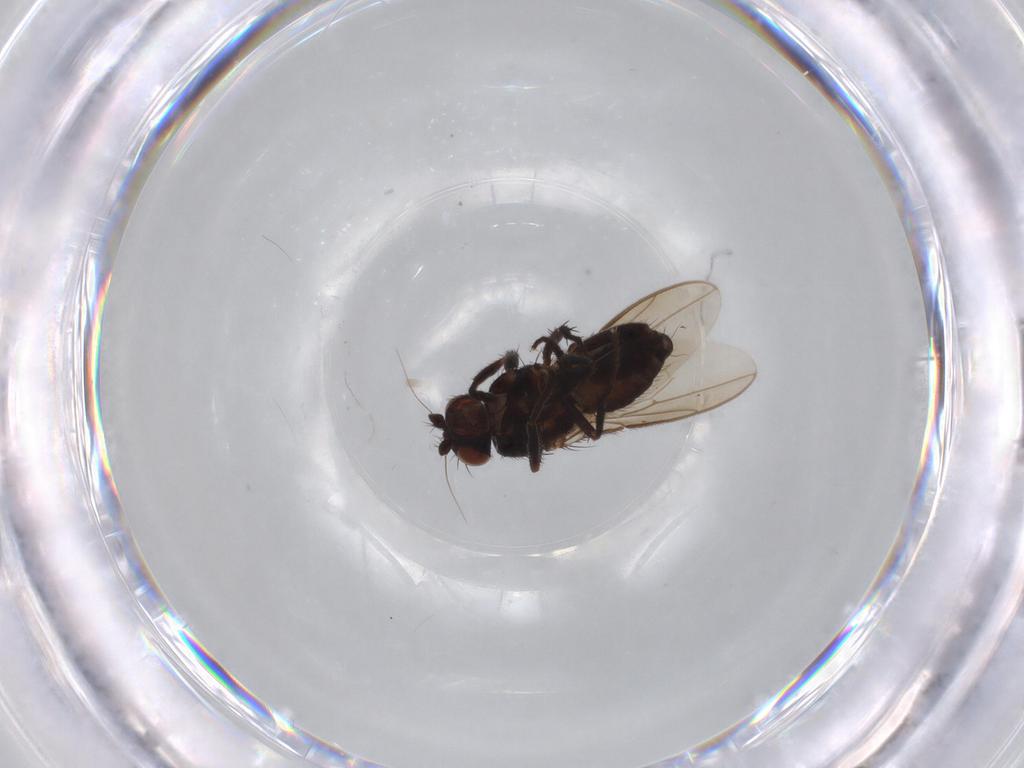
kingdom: Animalia
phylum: Arthropoda
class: Insecta
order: Diptera
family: Sphaeroceridae
